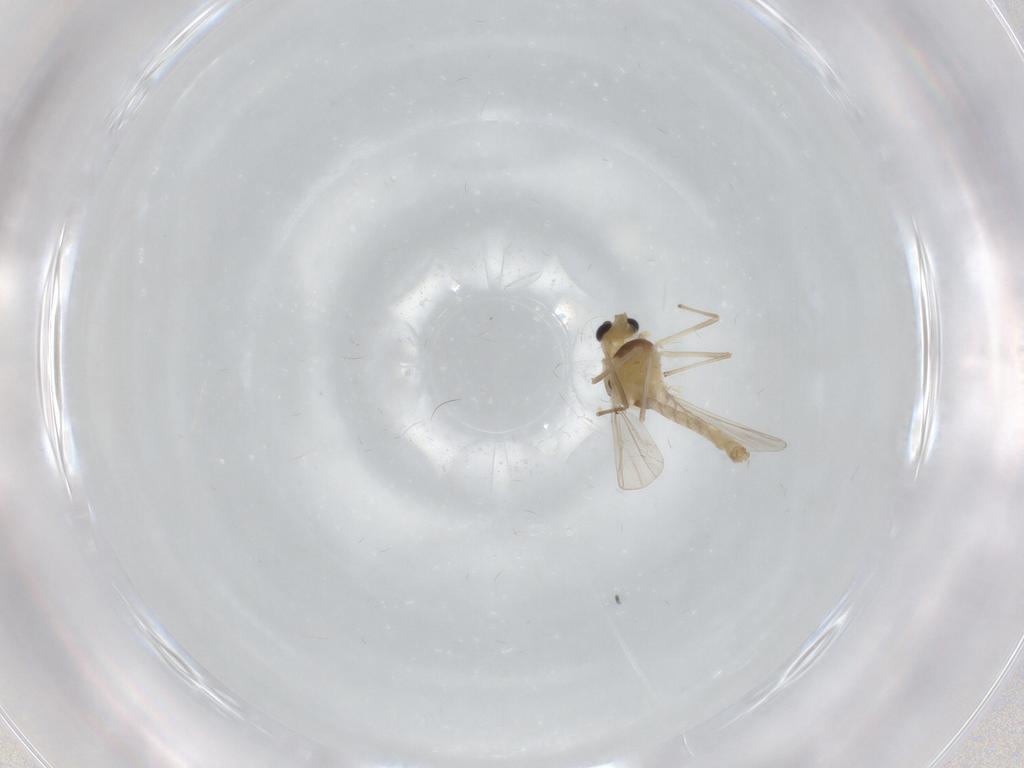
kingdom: Animalia
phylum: Arthropoda
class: Insecta
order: Diptera
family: Chironomidae
